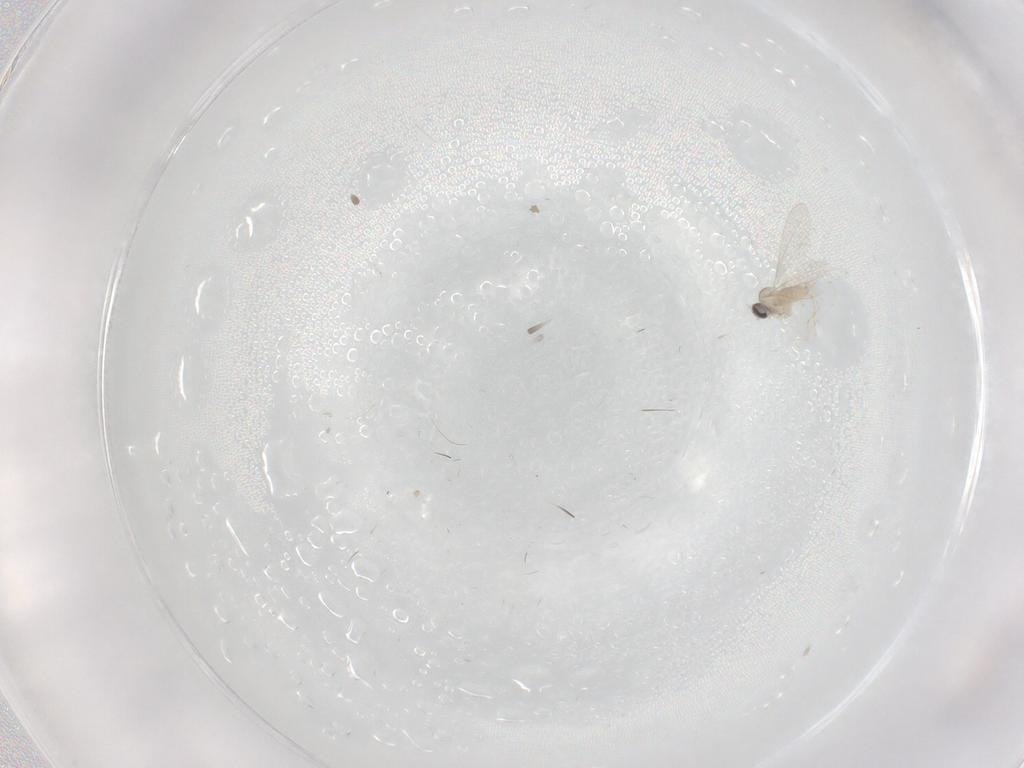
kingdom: Animalia
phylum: Arthropoda
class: Insecta
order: Diptera
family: Cecidomyiidae
